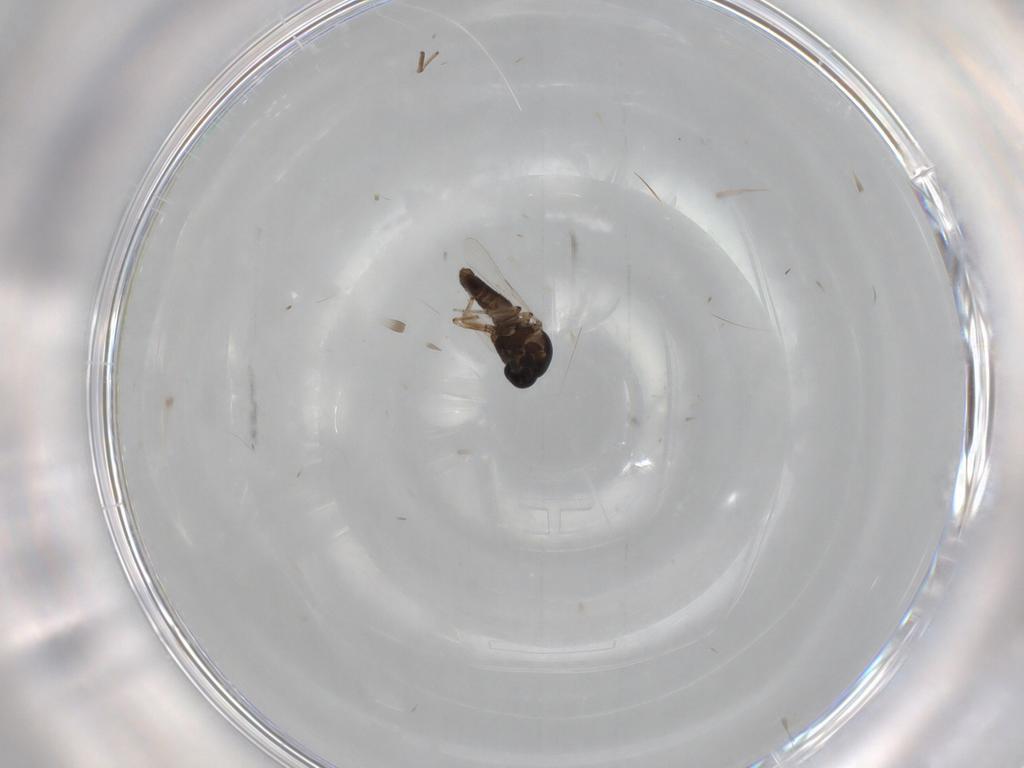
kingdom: Animalia
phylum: Arthropoda
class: Insecta
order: Diptera
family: Ceratopogonidae
